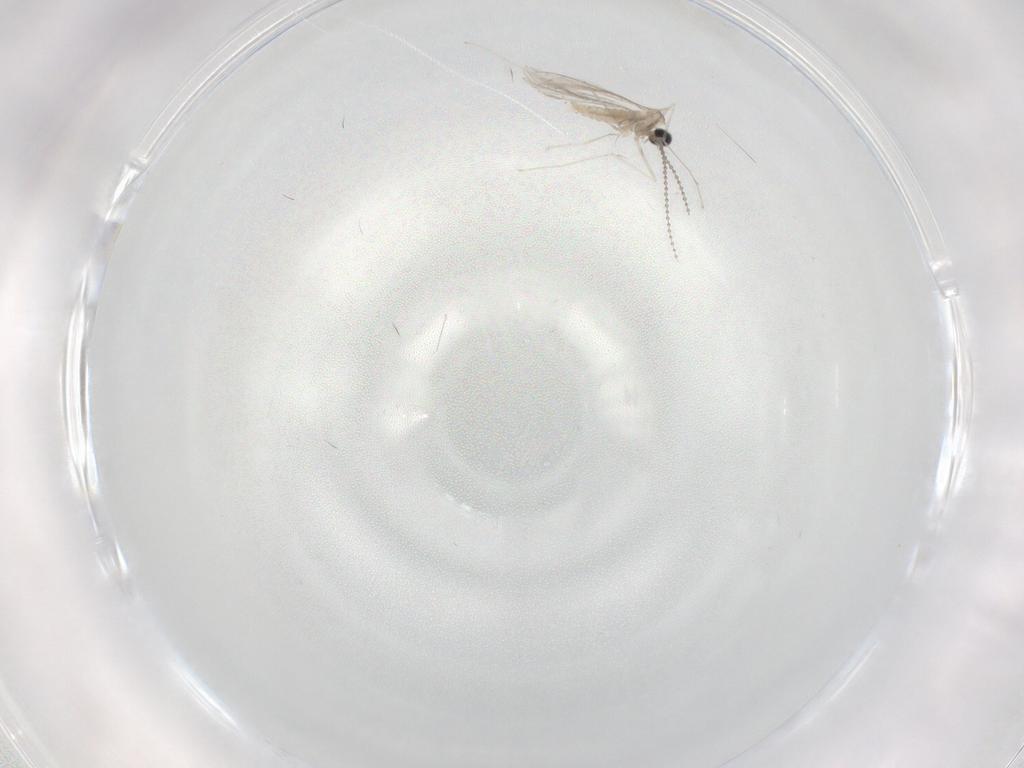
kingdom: Animalia
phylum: Arthropoda
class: Insecta
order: Diptera
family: Cecidomyiidae
